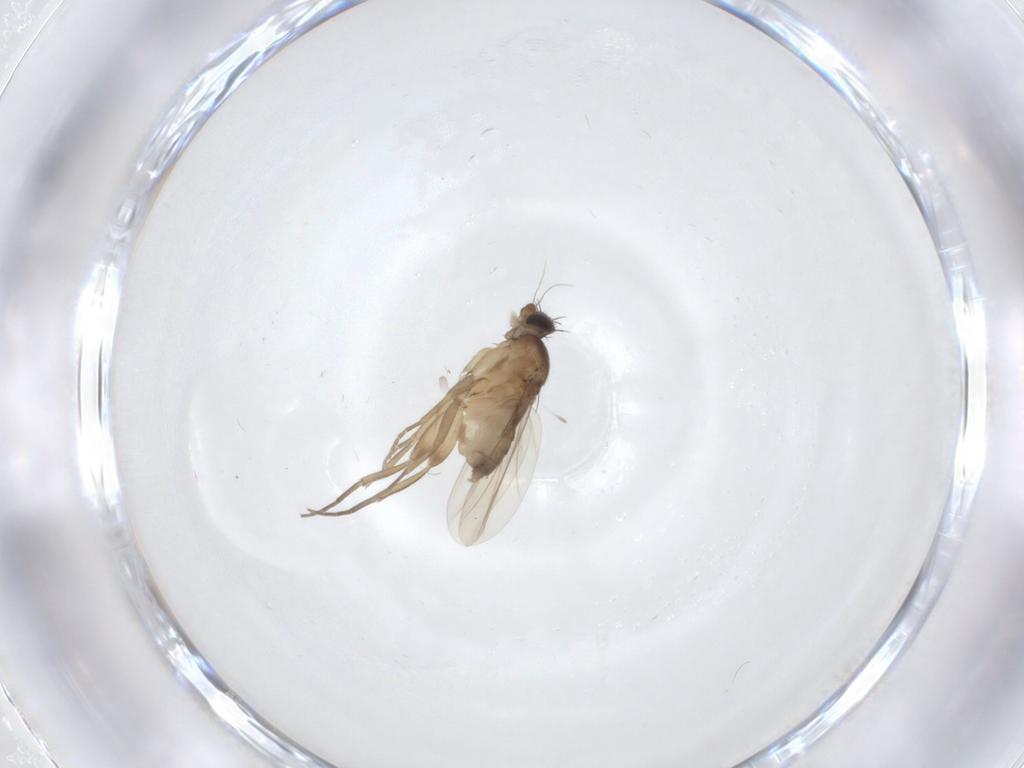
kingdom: Animalia
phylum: Arthropoda
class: Insecta
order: Diptera
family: Phoridae
